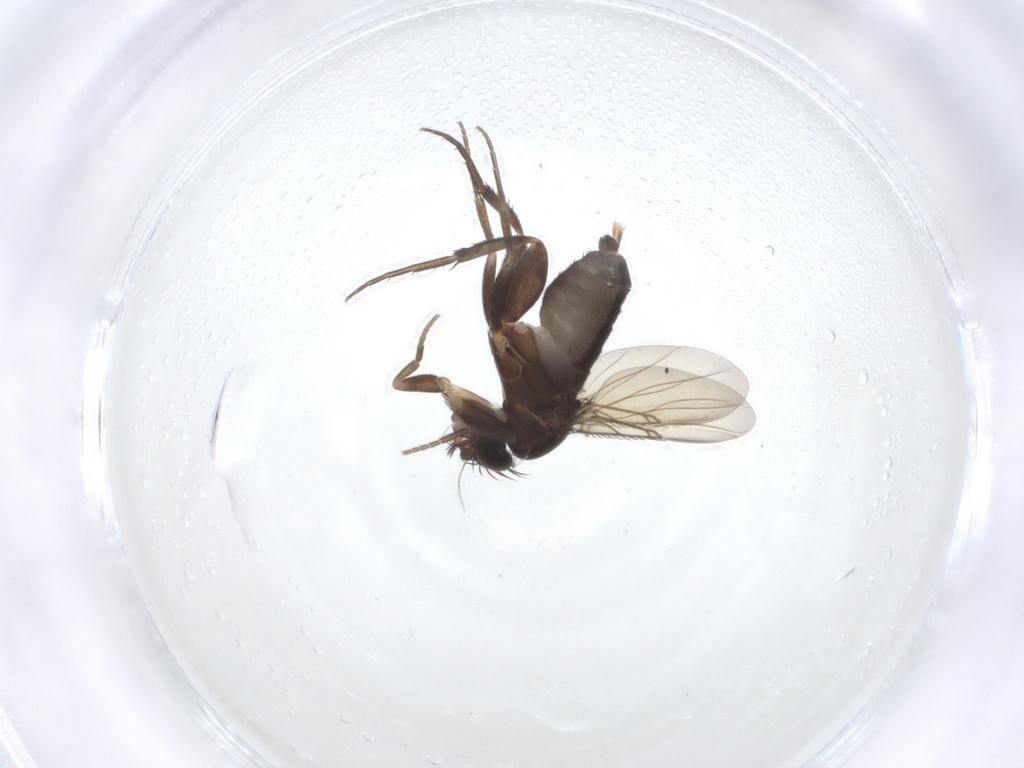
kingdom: Animalia
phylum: Arthropoda
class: Insecta
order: Diptera
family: Phoridae
